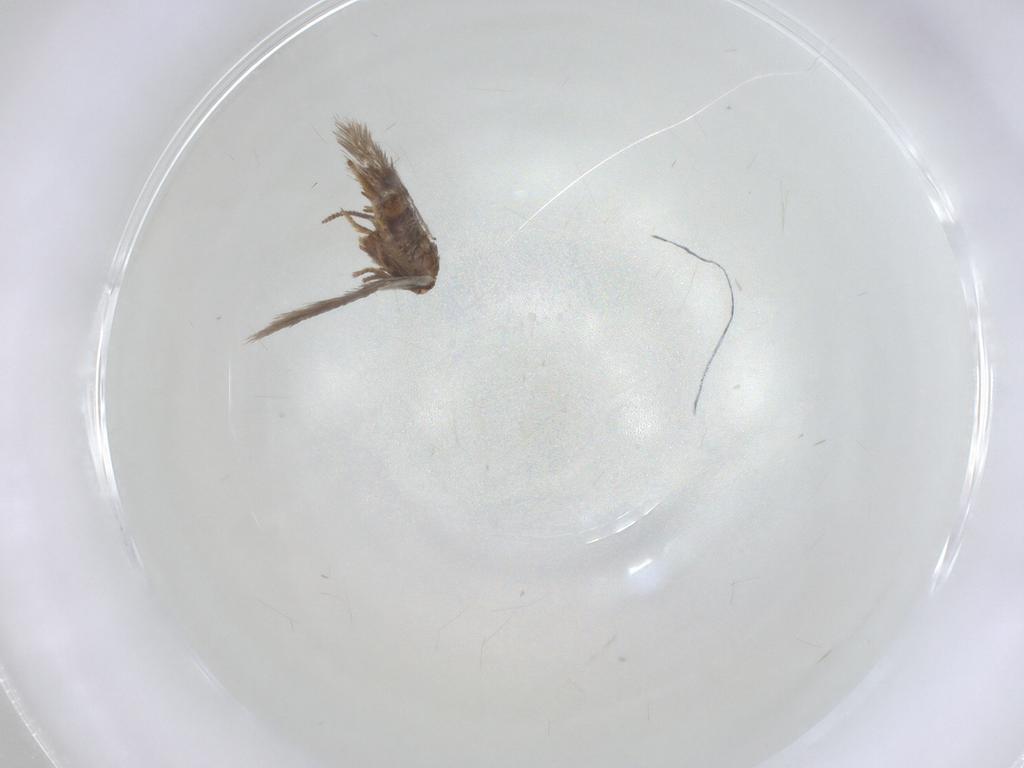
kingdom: Animalia
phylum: Arthropoda
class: Insecta
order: Lepidoptera
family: Nepticulidae
